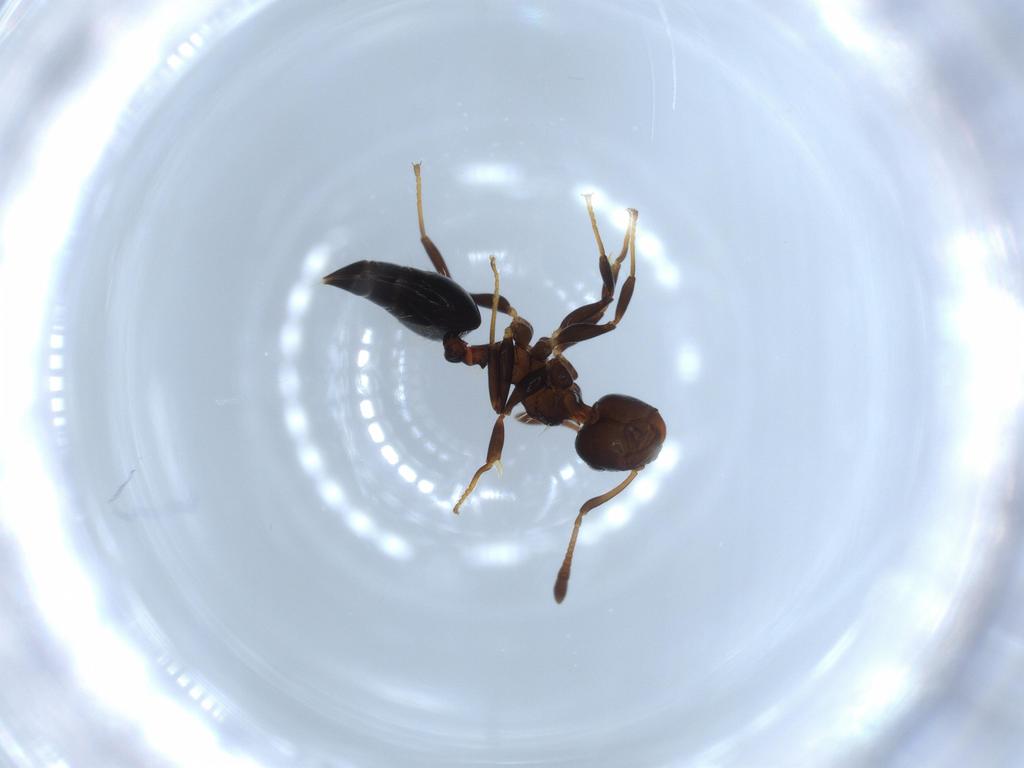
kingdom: Animalia
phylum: Arthropoda
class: Insecta
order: Hymenoptera
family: Formicidae
